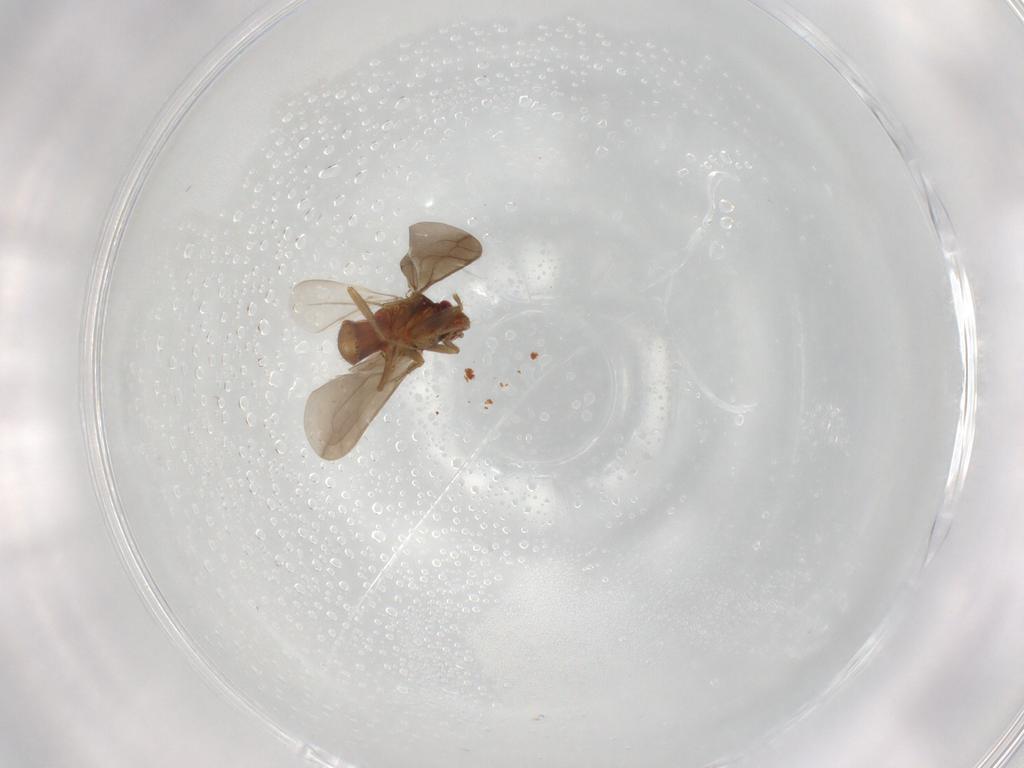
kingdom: Animalia
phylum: Arthropoda
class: Insecta
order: Hemiptera
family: Ceratocombidae
